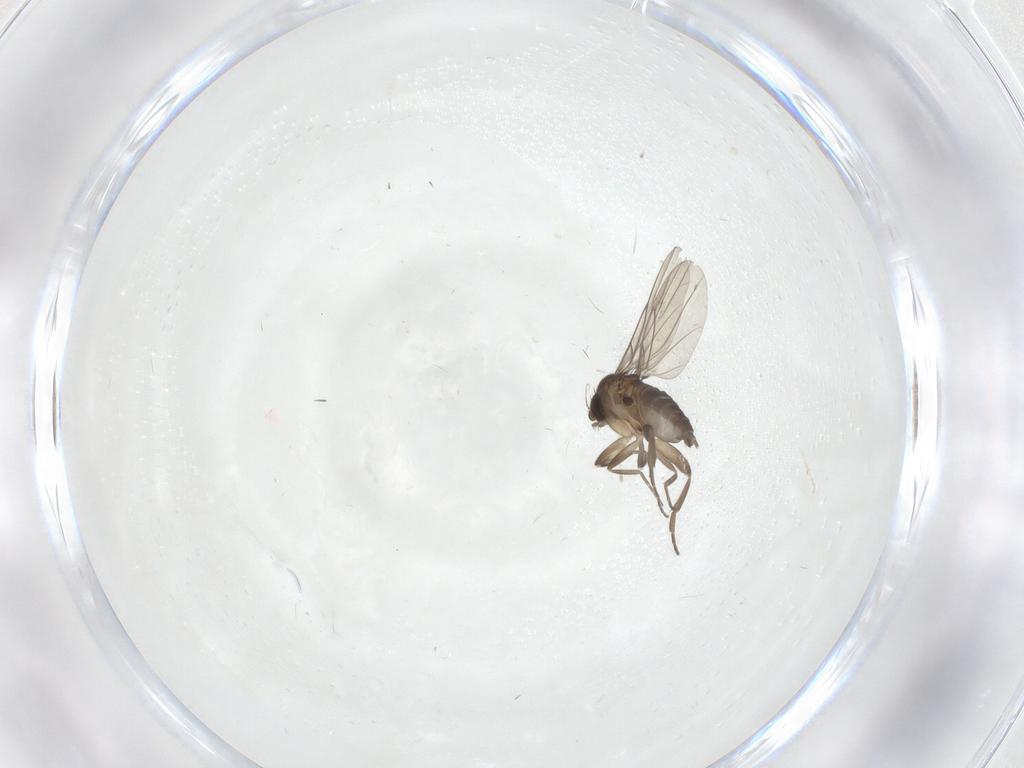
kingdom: Animalia
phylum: Arthropoda
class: Insecta
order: Diptera
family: Phoridae
